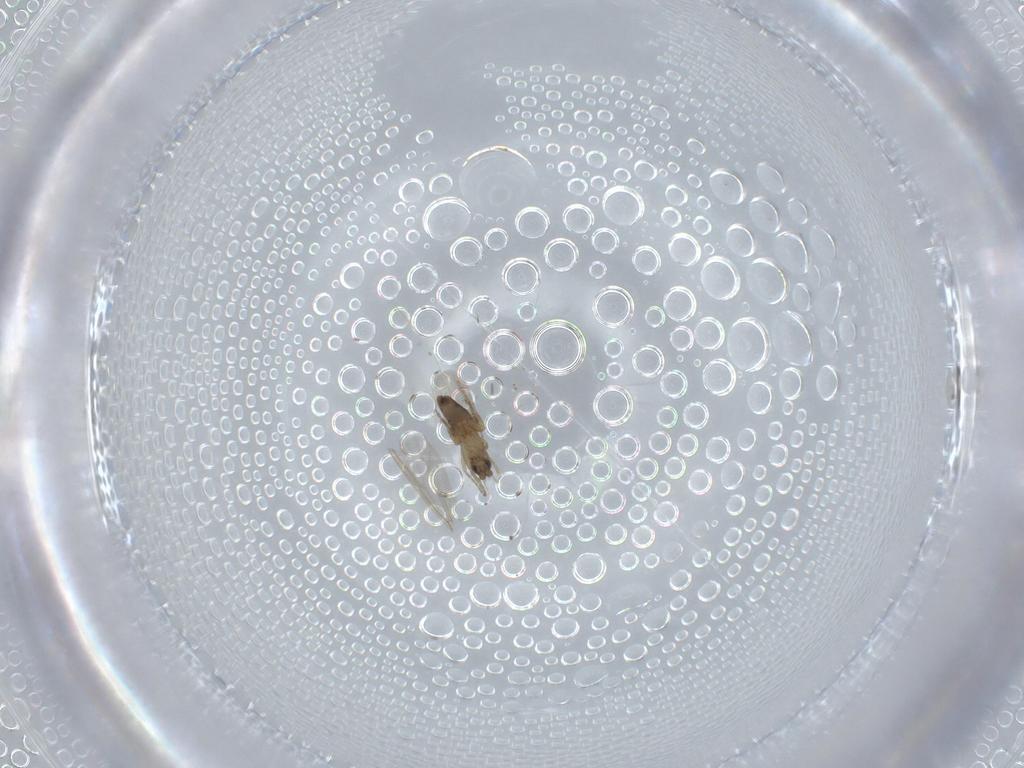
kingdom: Animalia
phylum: Arthropoda
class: Insecta
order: Diptera
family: Phoridae
